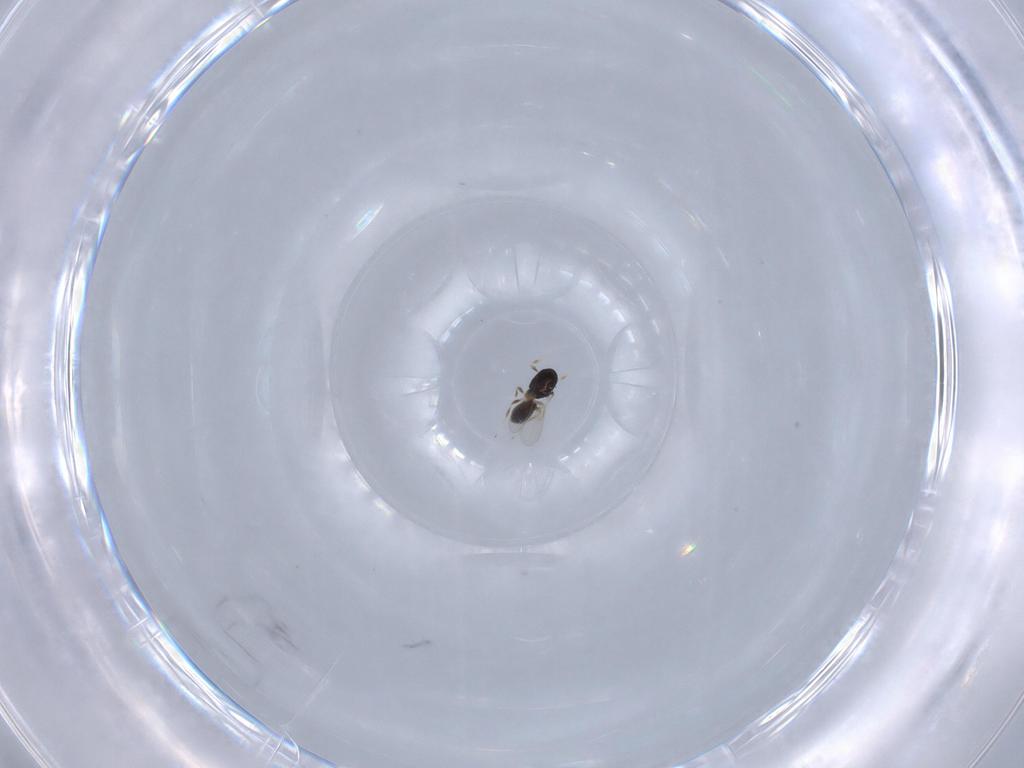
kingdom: Animalia
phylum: Arthropoda
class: Insecta
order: Hymenoptera
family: Scelionidae
